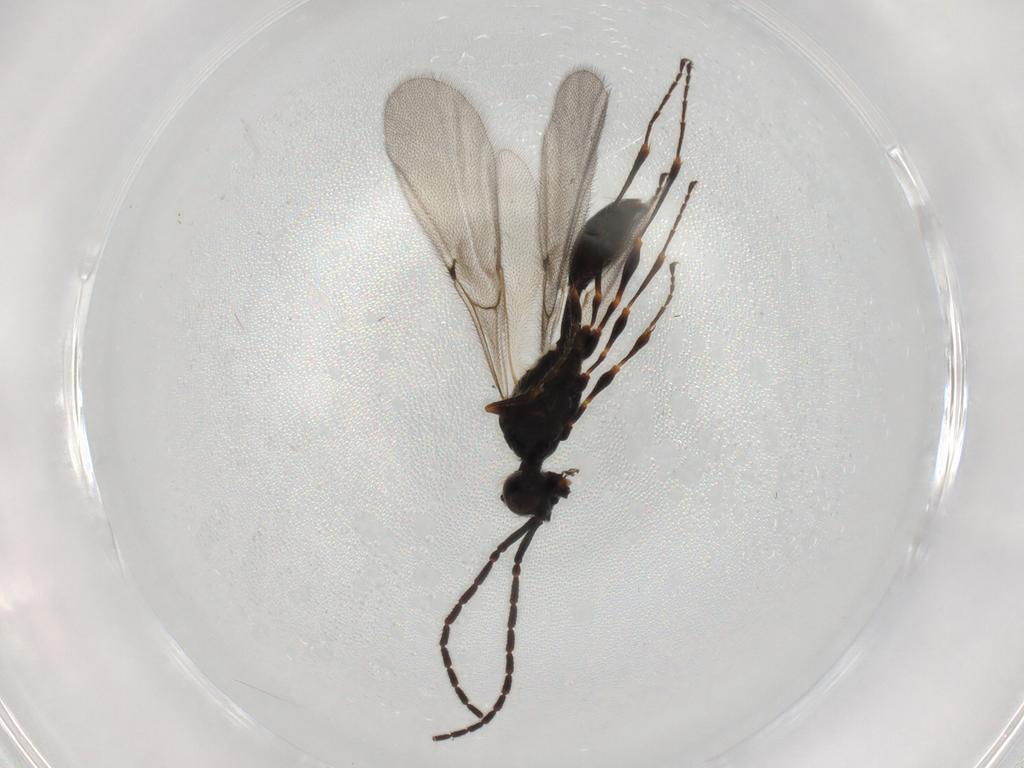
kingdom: Animalia
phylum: Arthropoda
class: Insecta
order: Hymenoptera
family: Diapriidae
